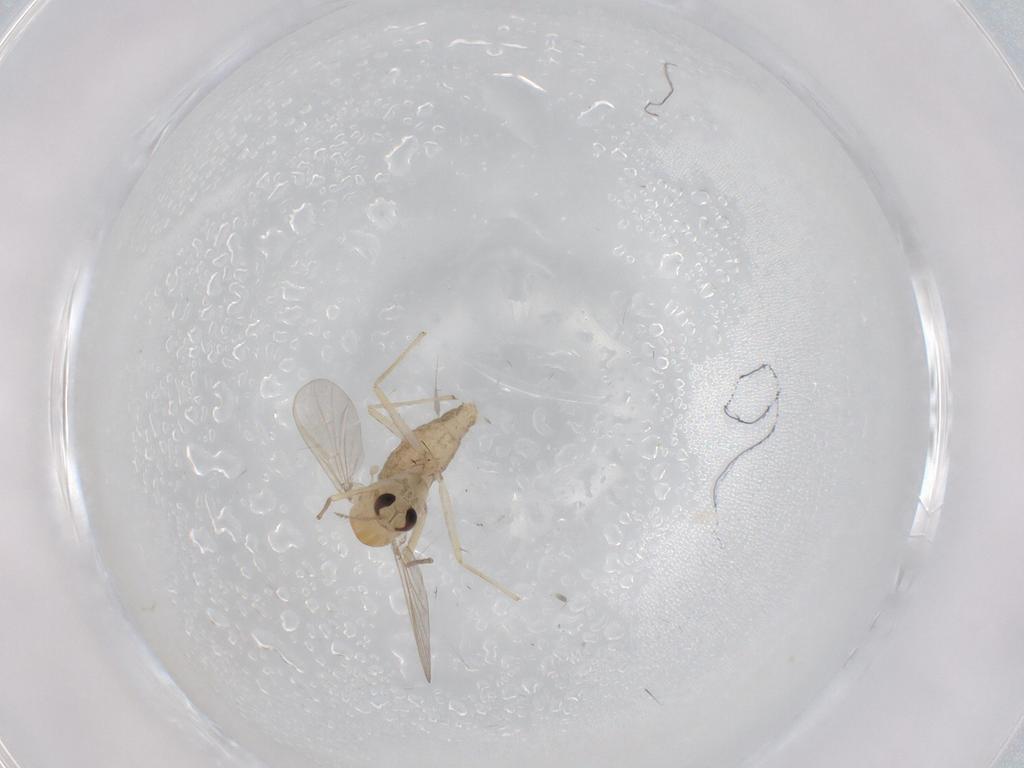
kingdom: Animalia
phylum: Arthropoda
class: Insecta
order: Diptera
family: Chironomidae
